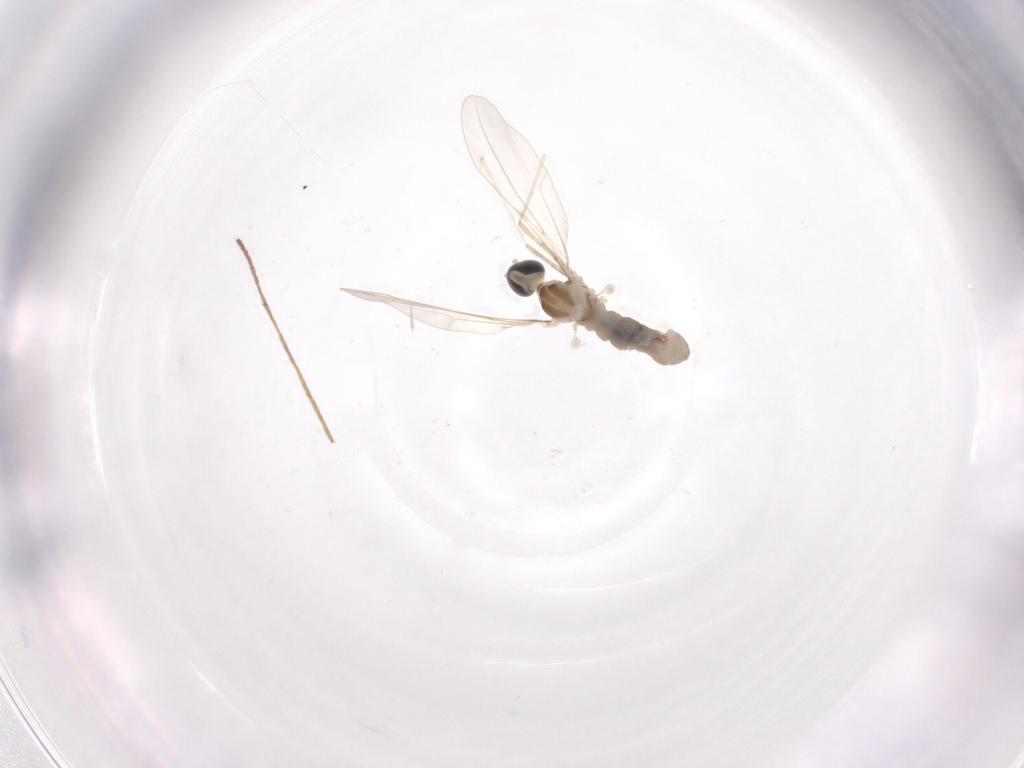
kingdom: Animalia
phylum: Arthropoda
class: Insecta
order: Diptera
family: Cecidomyiidae
